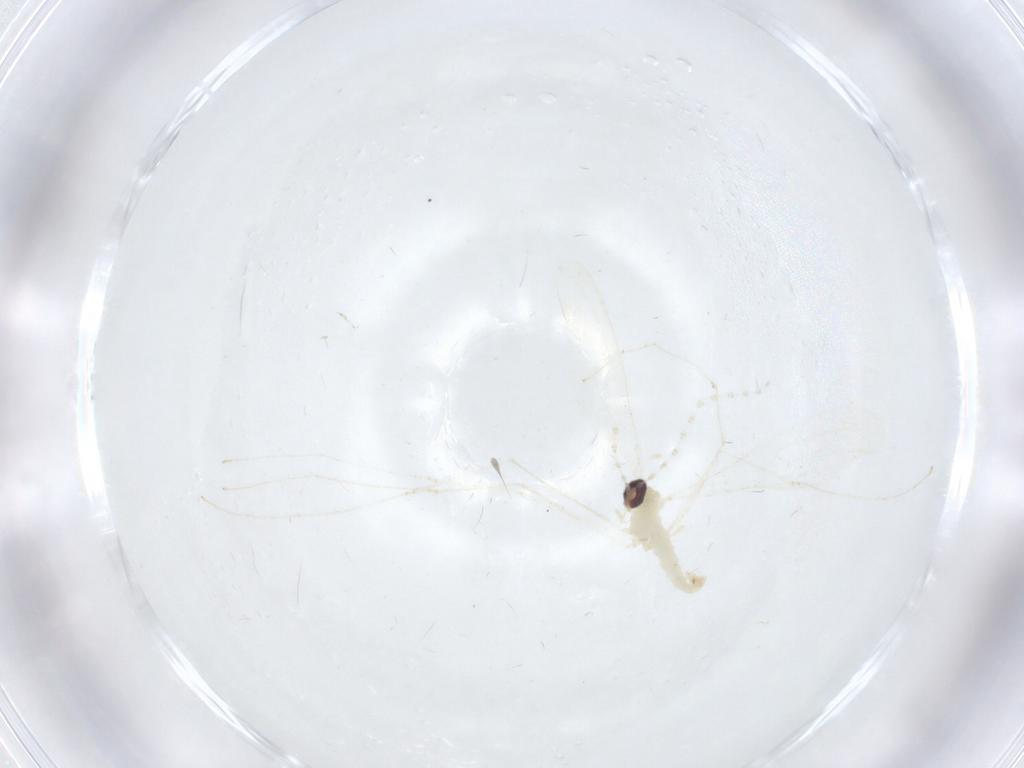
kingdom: Animalia
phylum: Arthropoda
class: Insecta
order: Diptera
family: Cecidomyiidae
